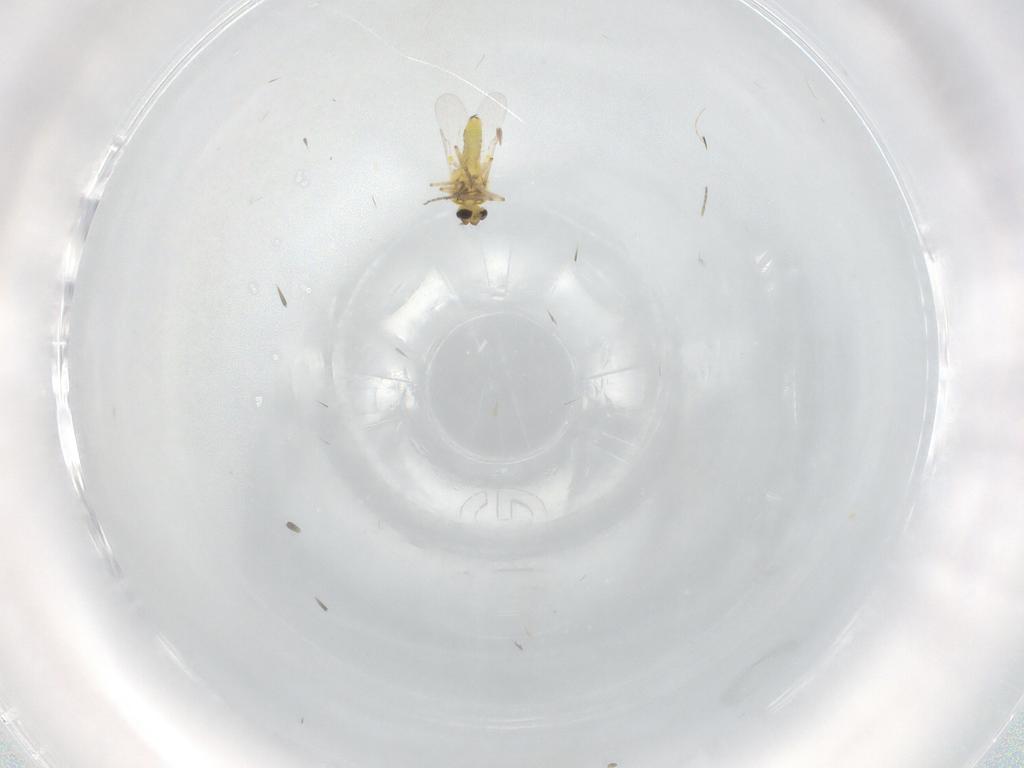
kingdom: Animalia
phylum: Arthropoda
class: Insecta
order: Diptera
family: Ceratopogonidae
